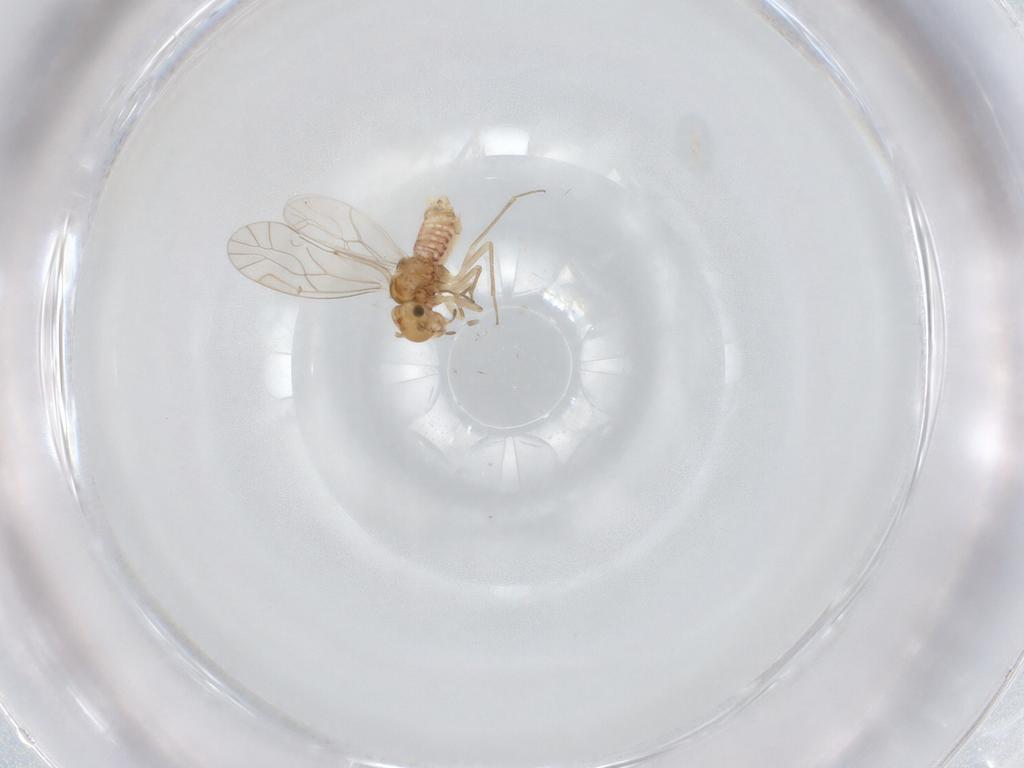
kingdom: Animalia
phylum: Arthropoda
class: Insecta
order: Psocodea
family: Lachesillidae
